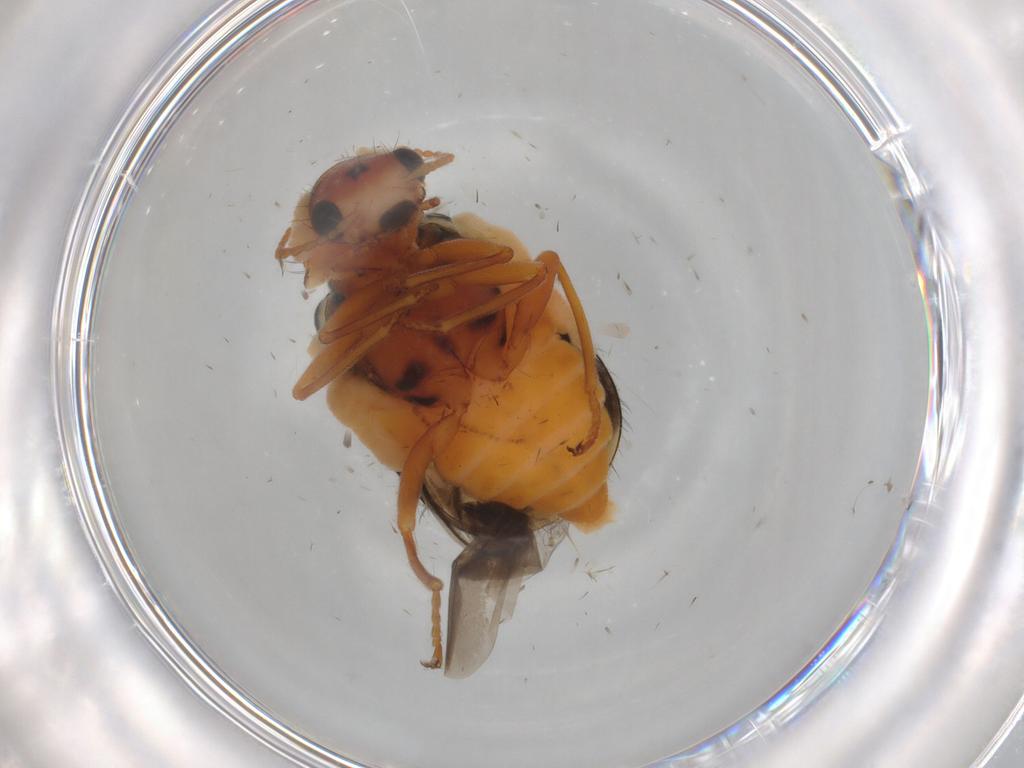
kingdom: Animalia
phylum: Arthropoda
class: Insecta
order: Coleoptera
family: Melyridae
